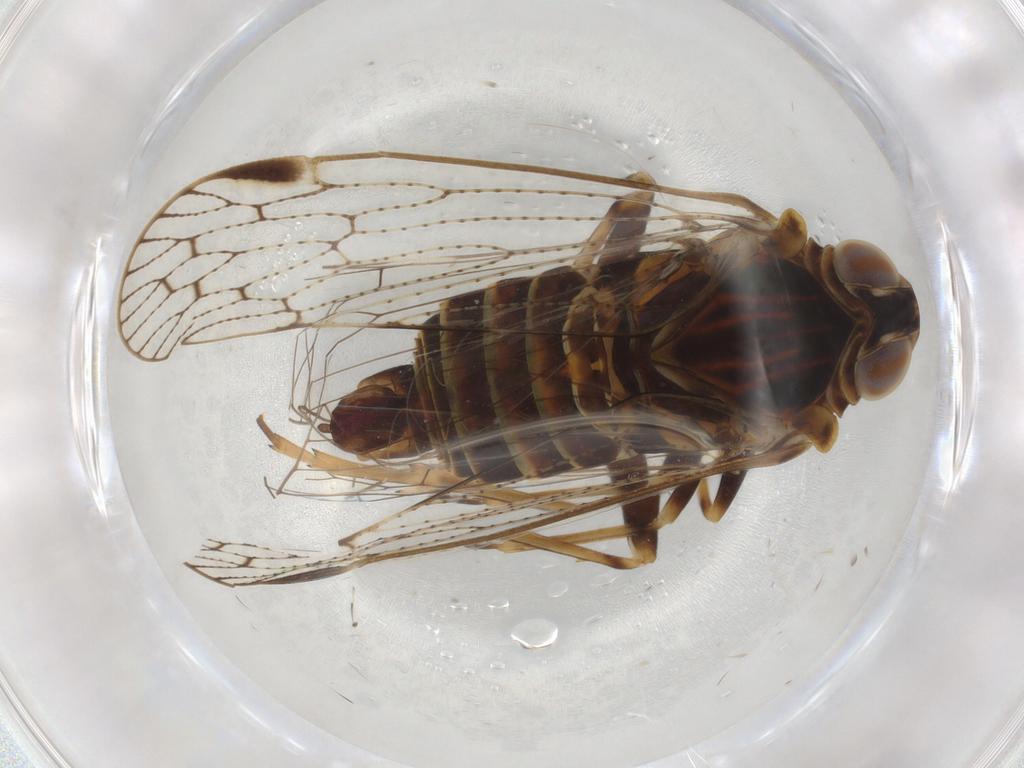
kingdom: Animalia
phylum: Arthropoda
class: Insecta
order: Hemiptera
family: Cixiidae
